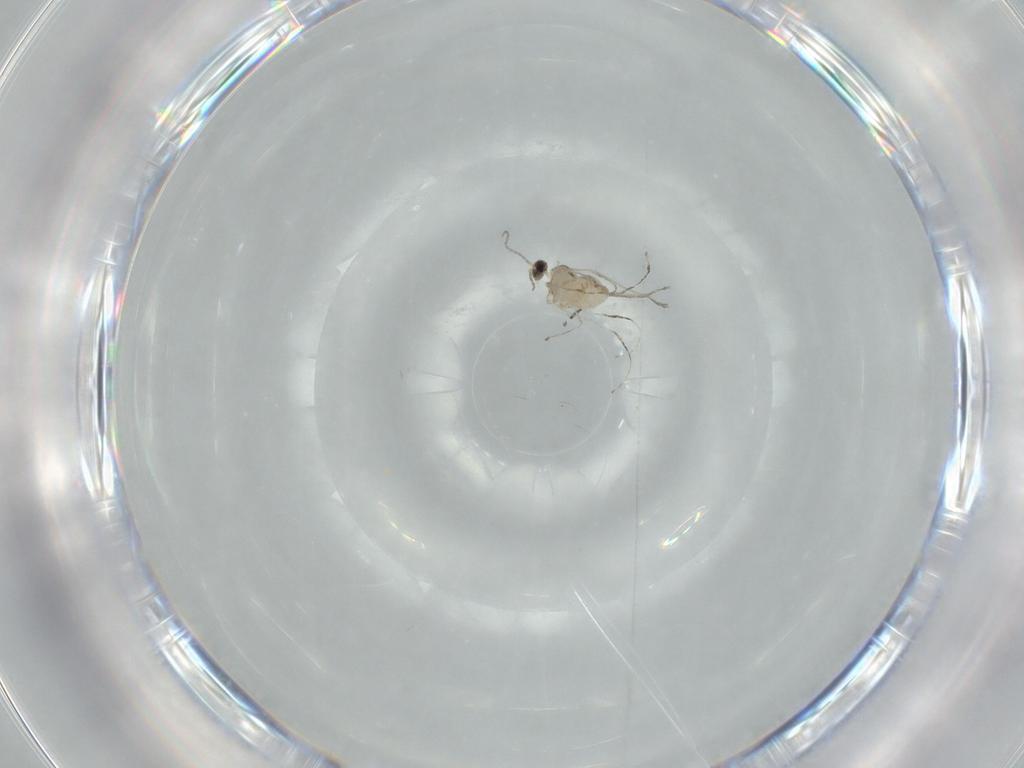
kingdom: Animalia
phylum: Arthropoda
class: Insecta
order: Diptera
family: Cecidomyiidae
